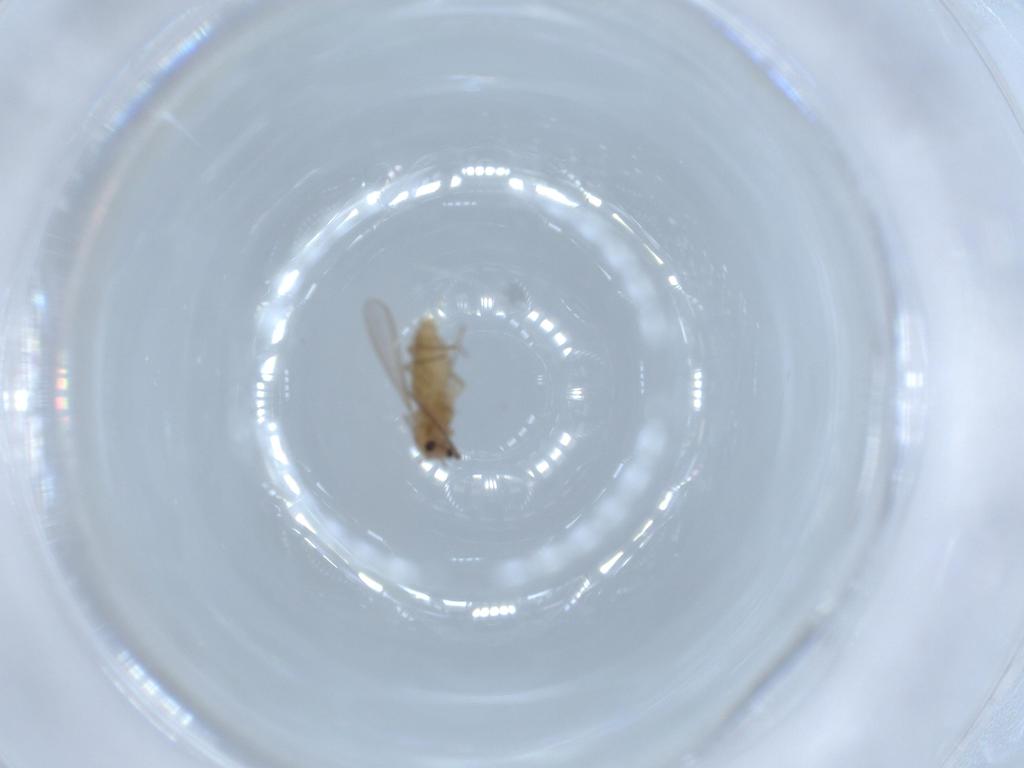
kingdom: Animalia
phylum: Arthropoda
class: Insecta
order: Diptera
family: Chironomidae
